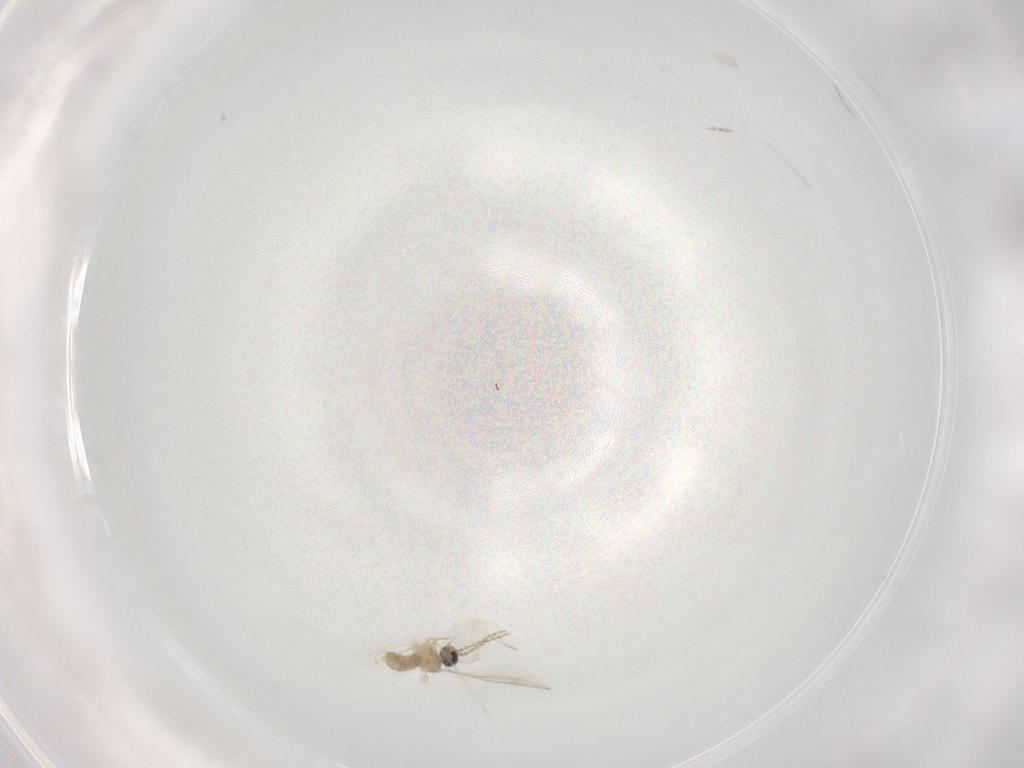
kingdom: Animalia
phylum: Arthropoda
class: Insecta
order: Diptera
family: Cecidomyiidae
